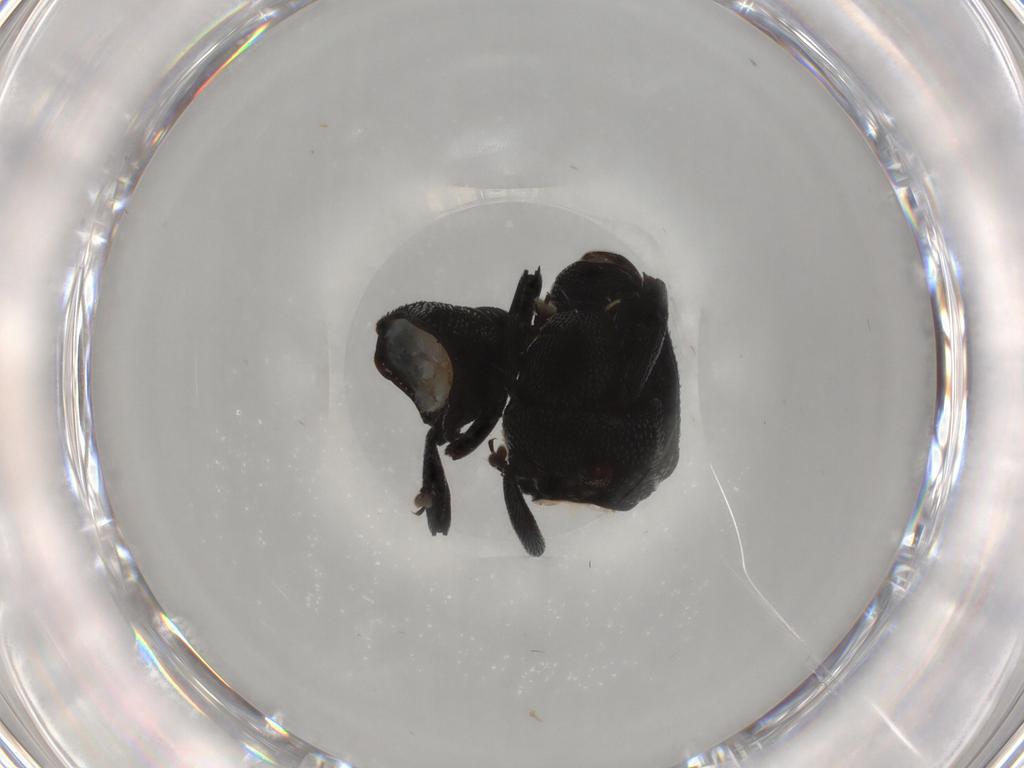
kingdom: Animalia
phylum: Arthropoda
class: Insecta
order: Coleoptera
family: Curculionidae
